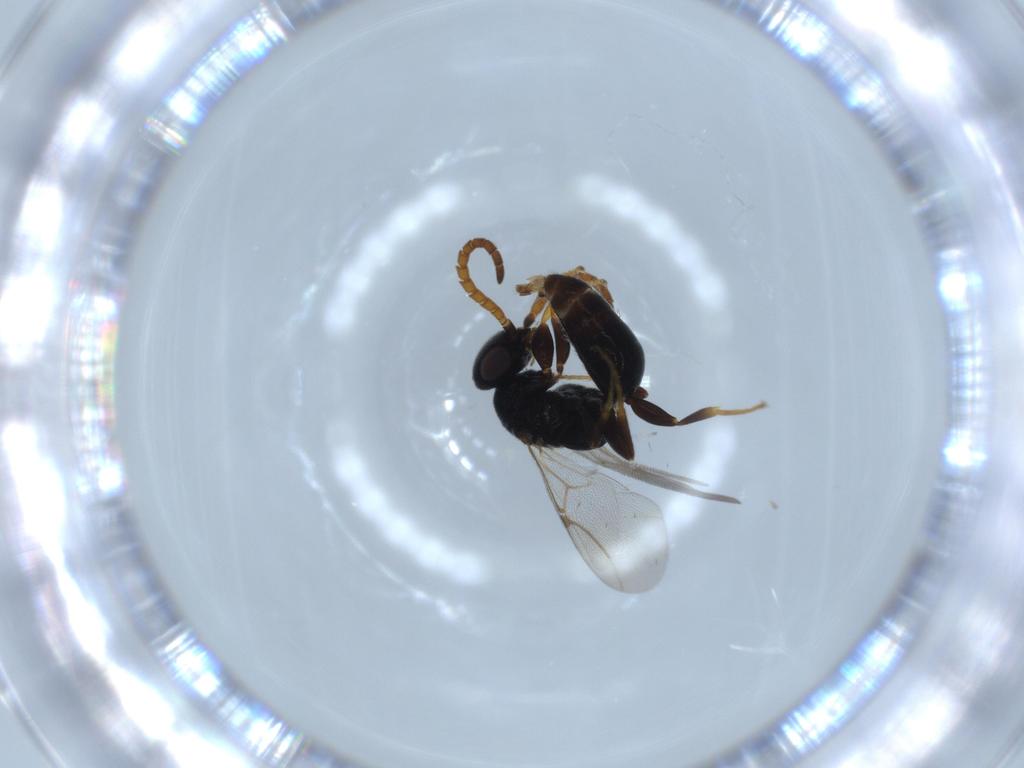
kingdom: Animalia
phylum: Arthropoda
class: Insecta
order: Hymenoptera
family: Bethylidae
